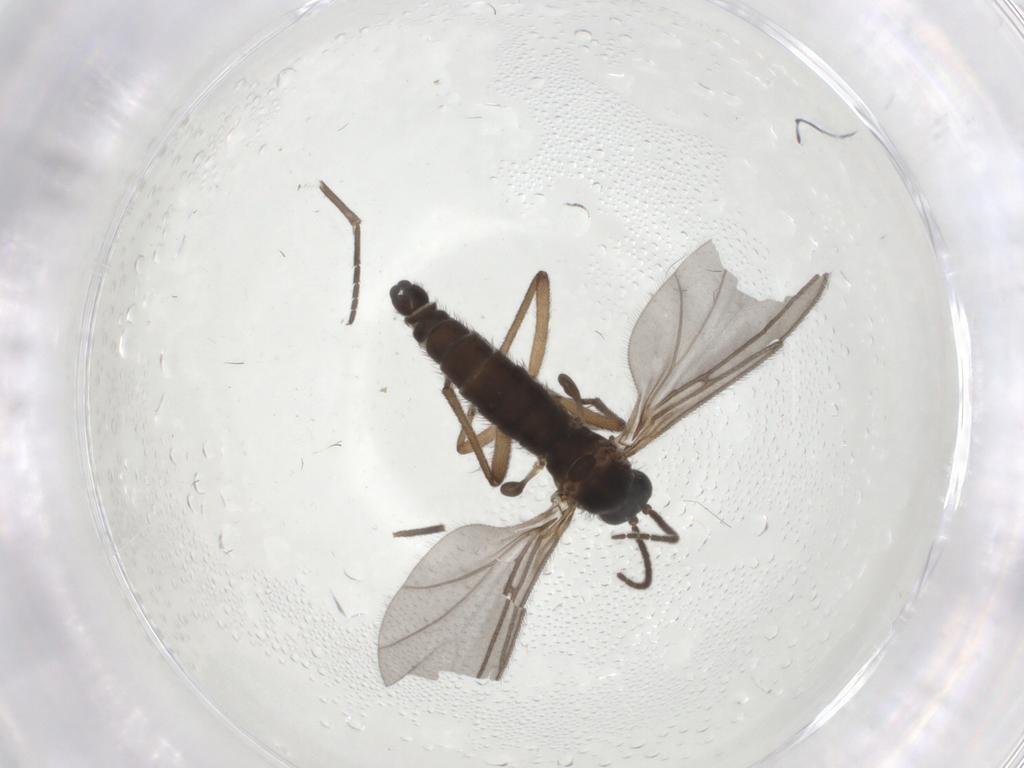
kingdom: Animalia
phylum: Arthropoda
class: Insecta
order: Diptera
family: Sciaridae
